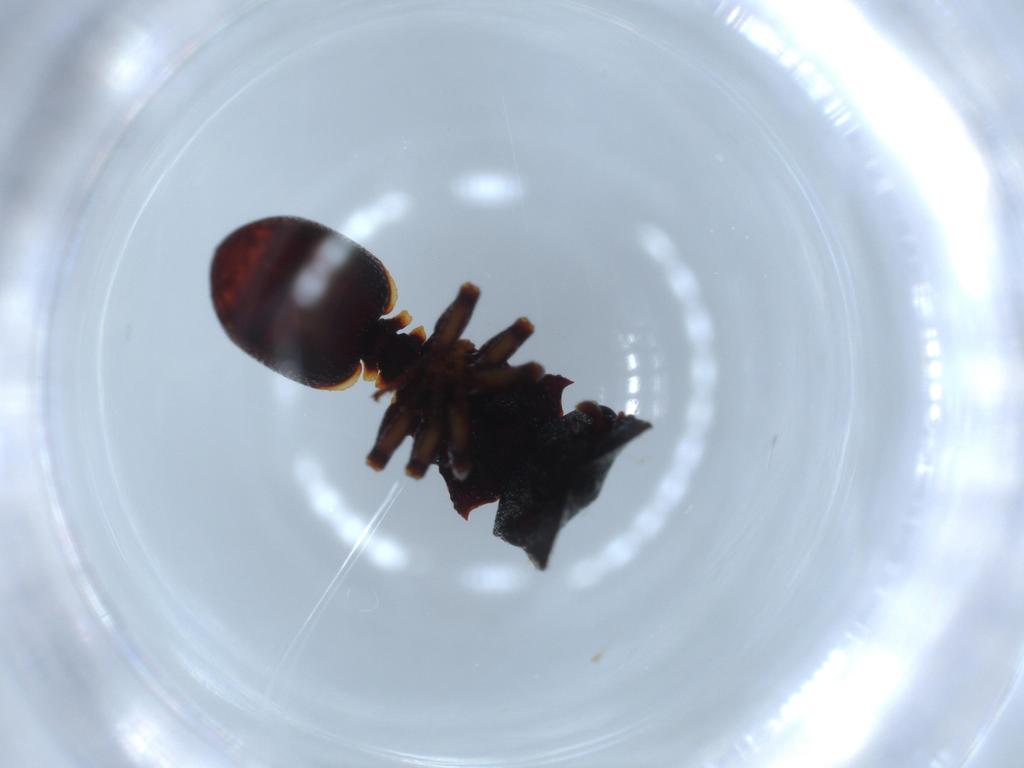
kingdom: Animalia
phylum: Arthropoda
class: Insecta
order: Hymenoptera
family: Formicidae
